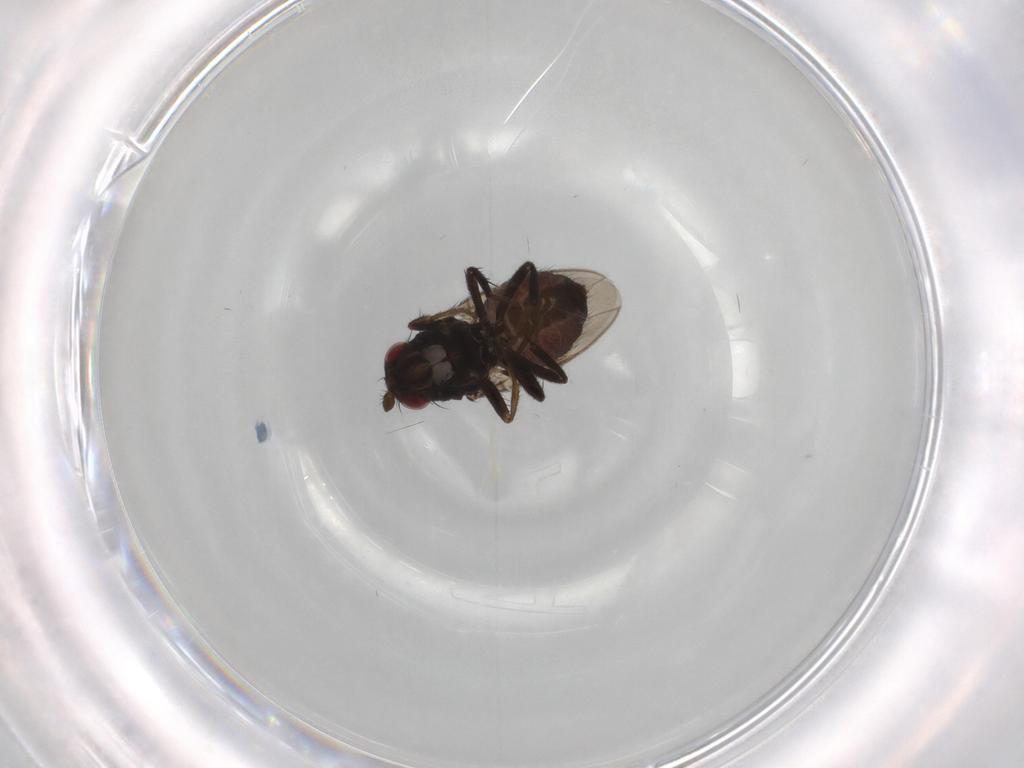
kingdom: Animalia
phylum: Arthropoda
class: Insecta
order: Diptera
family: Sphaeroceridae
